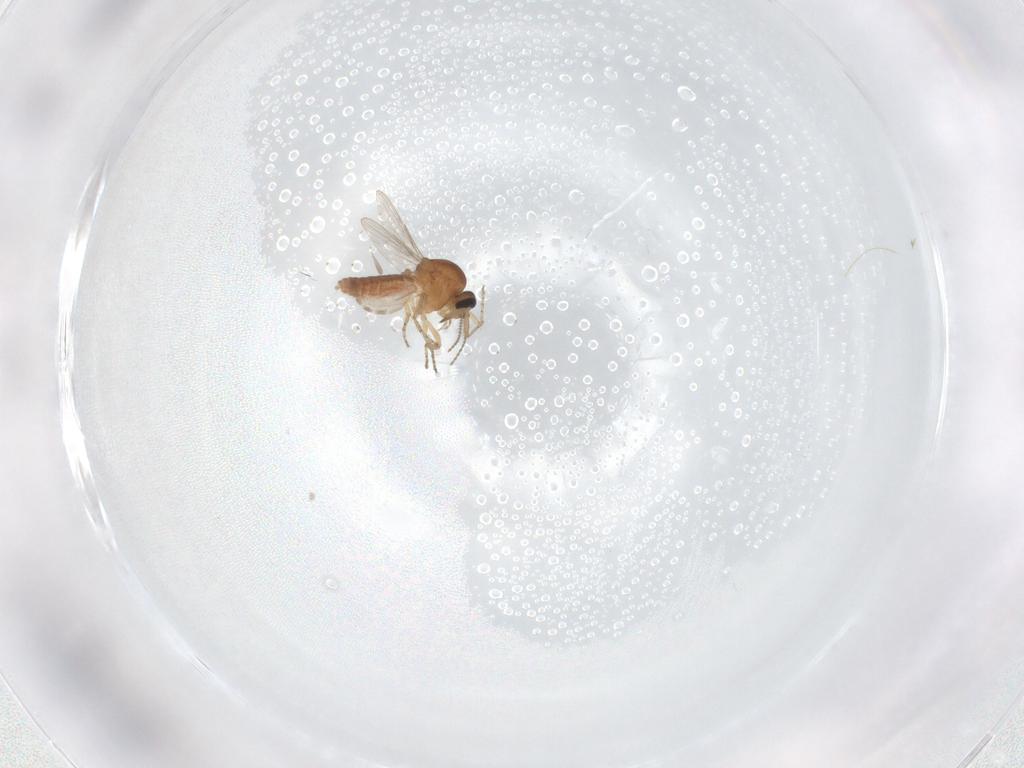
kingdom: Animalia
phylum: Arthropoda
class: Insecta
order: Diptera
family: Ceratopogonidae
